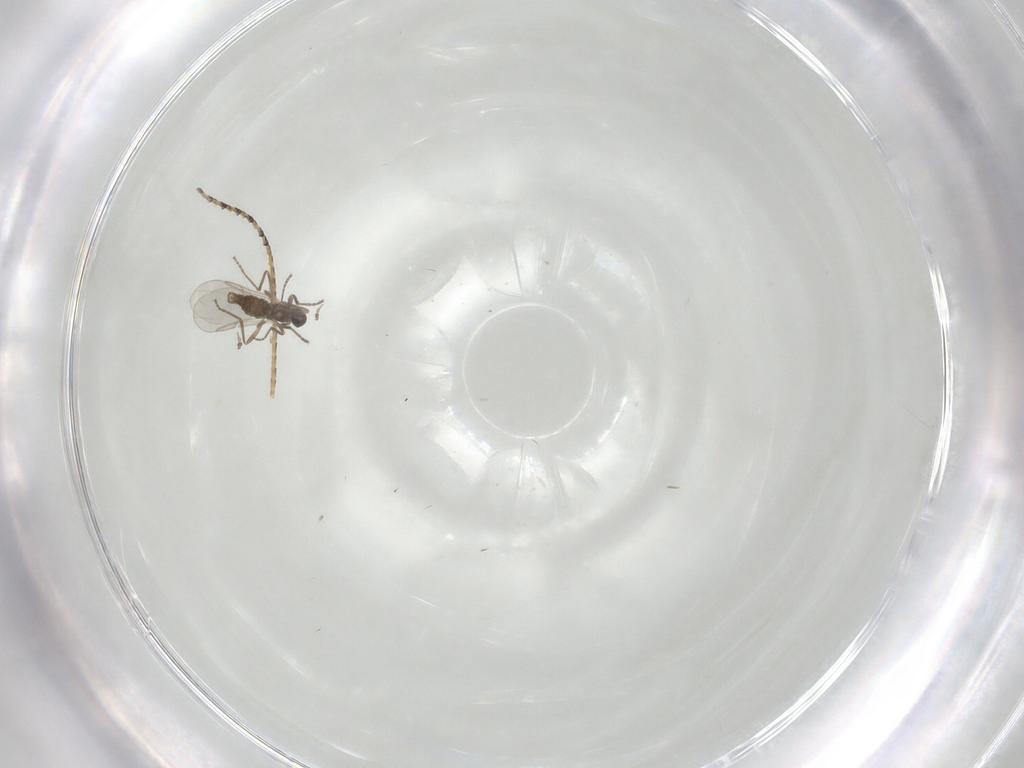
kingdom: Animalia
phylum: Arthropoda
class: Insecta
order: Diptera
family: Cecidomyiidae
